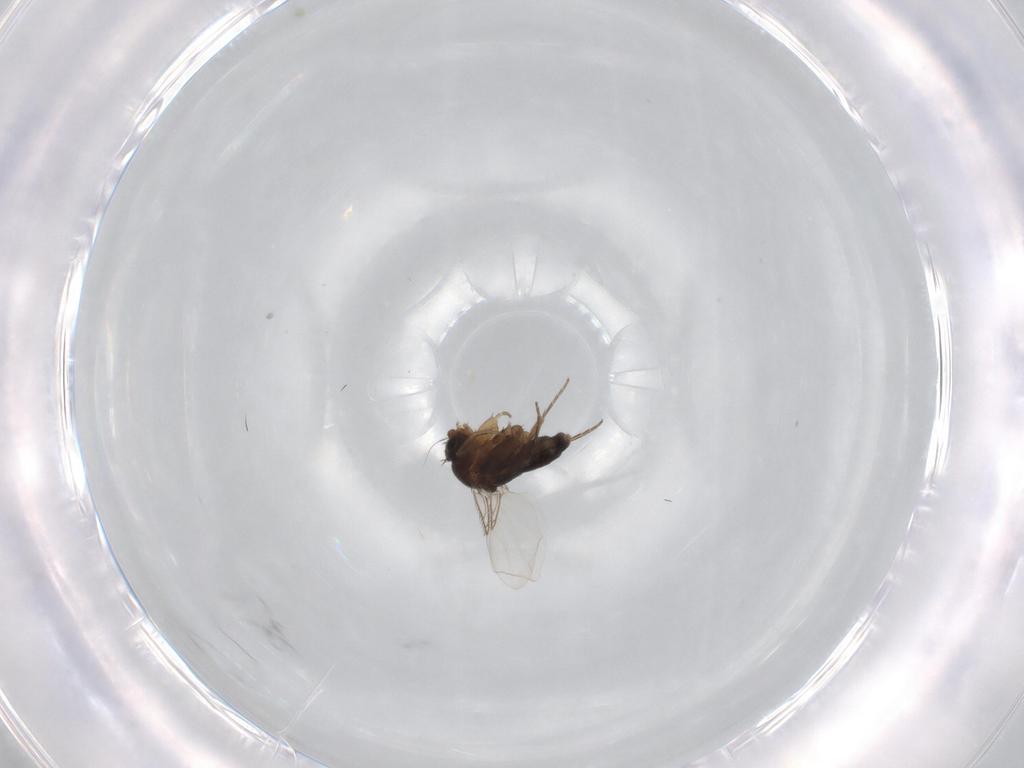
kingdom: Animalia
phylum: Arthropoda
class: Insecta
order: Diptera
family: Phoridae
